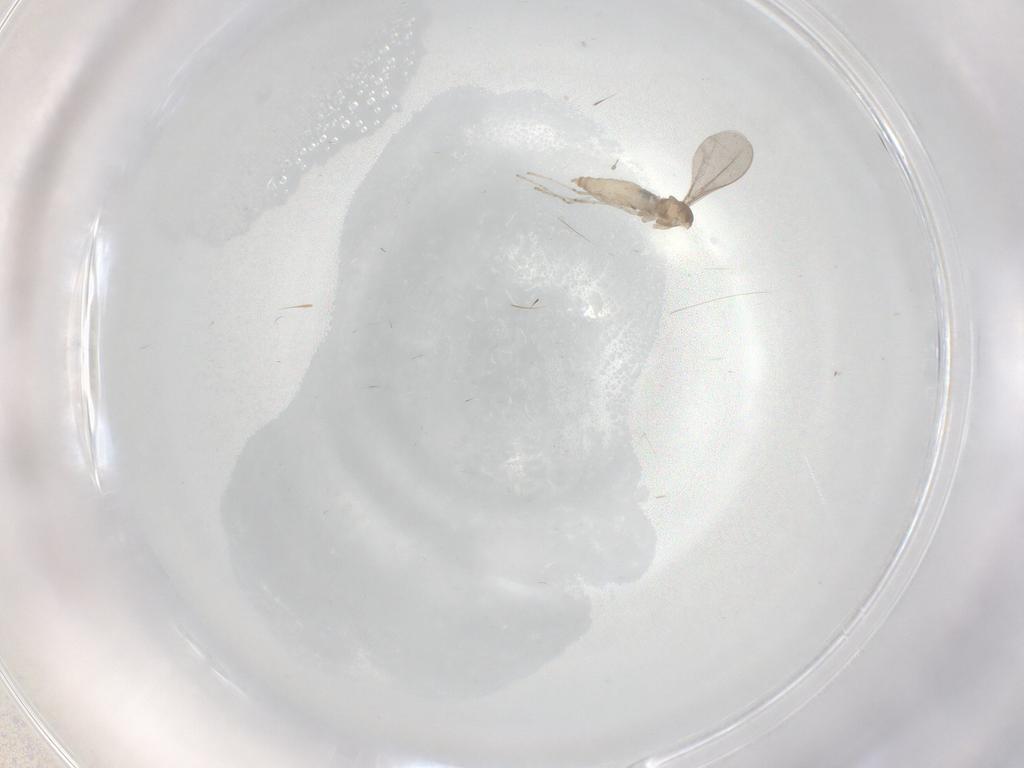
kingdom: Animalia
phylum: Arthropoda
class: Insecta
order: Diptera
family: Cecidomyiidae
